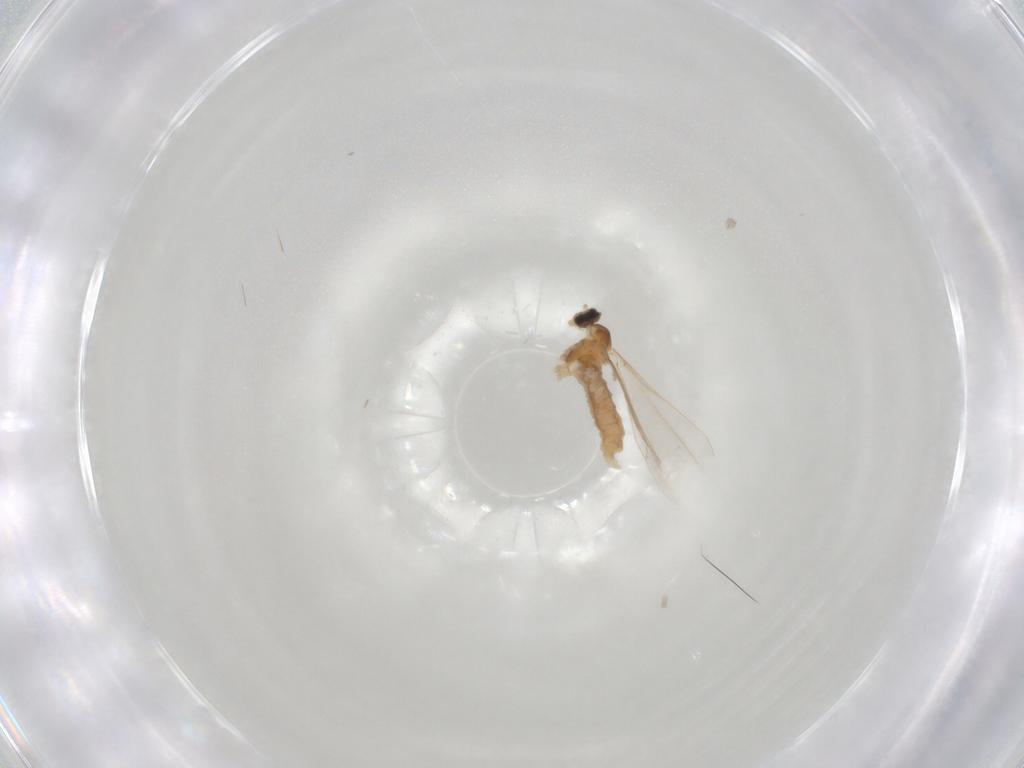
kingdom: Animalia
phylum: Arthropoda
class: Insecta
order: Diptera
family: Cecidomyiidae
